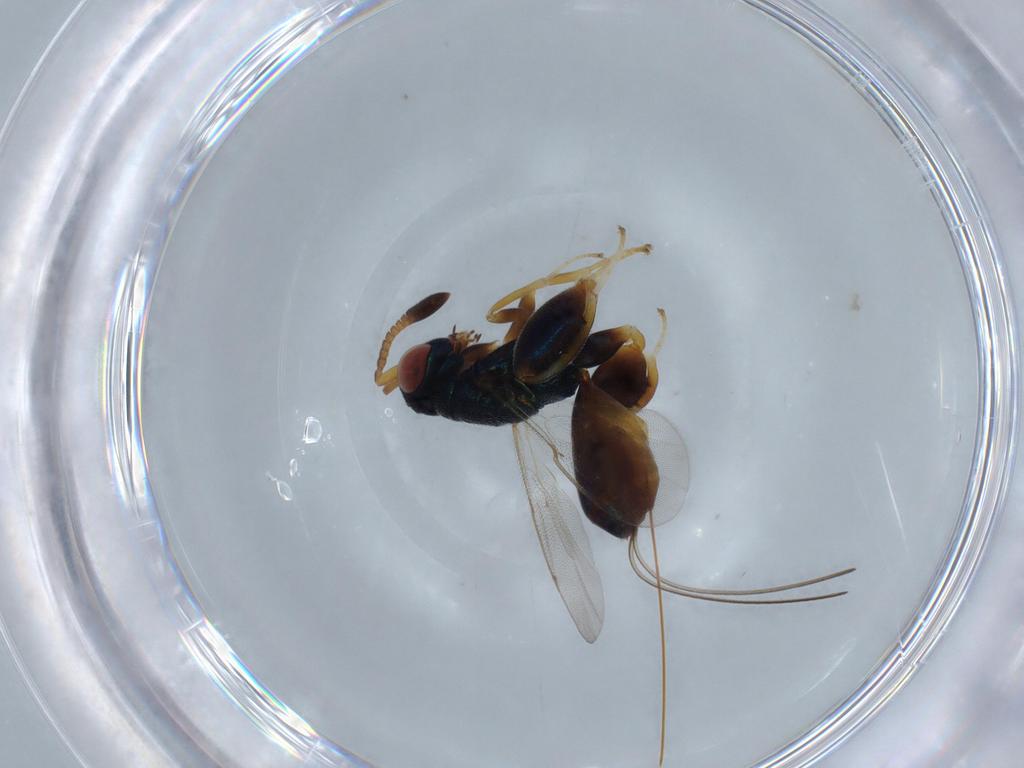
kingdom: Animalia
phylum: Arthropoda
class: Insecta
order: Hymenoptera
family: Torymidae
